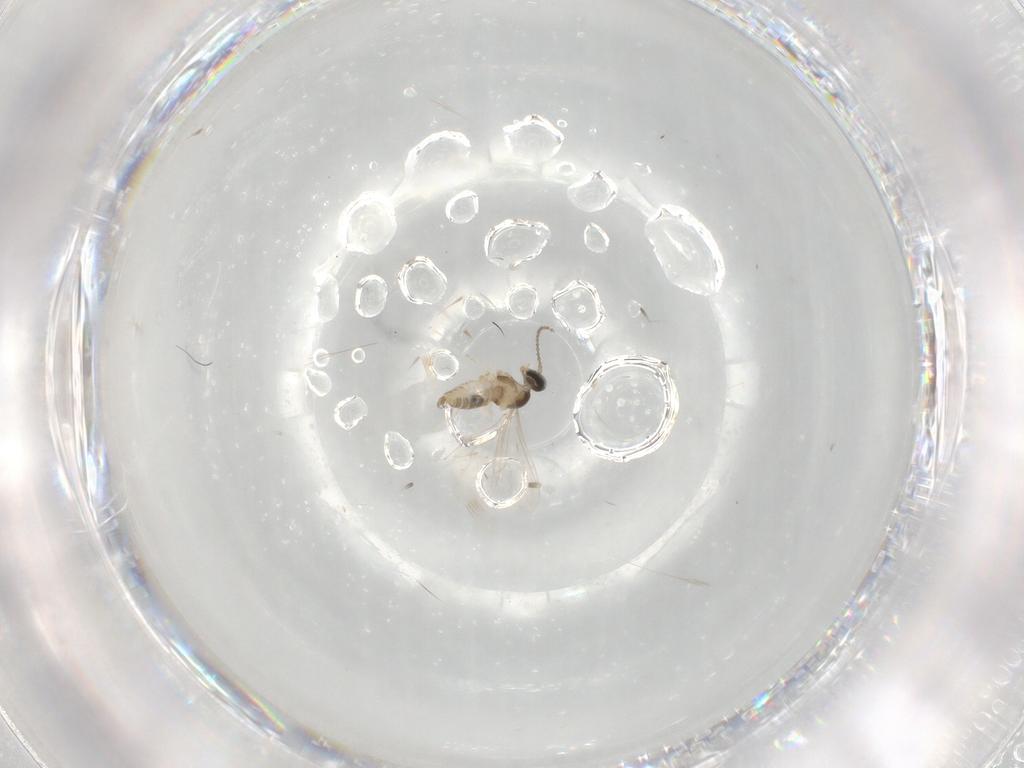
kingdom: Animalia
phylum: Arthropoda
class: Insecta
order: Diptera
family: Cecidomyiidae
